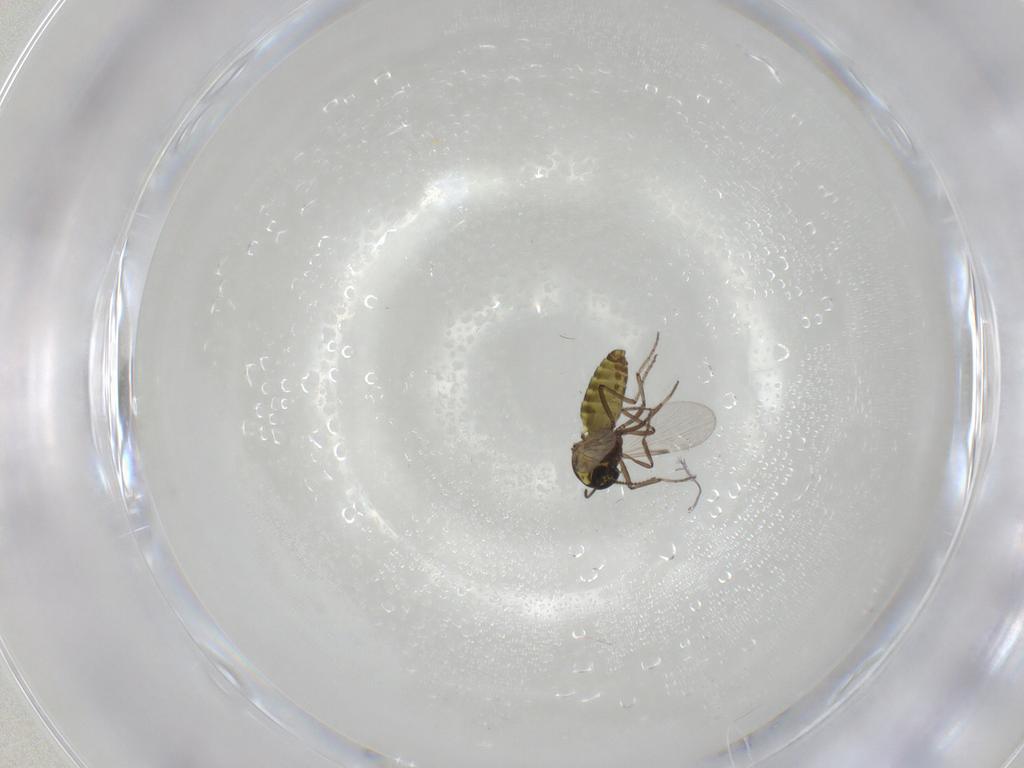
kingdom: Animalia
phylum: Arthropoda
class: Insecta
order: Diptera
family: Ceratopogonidae
